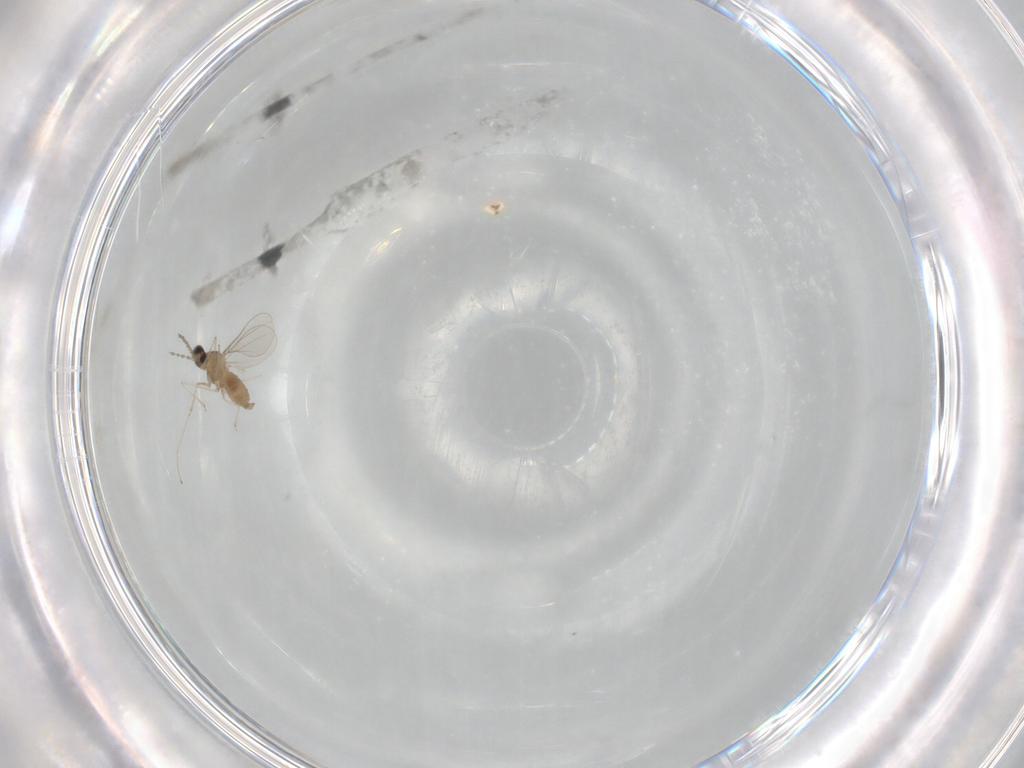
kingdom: Animalia
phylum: Arthropoda
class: Insecta
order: Diptera
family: Cecidomyiidae
